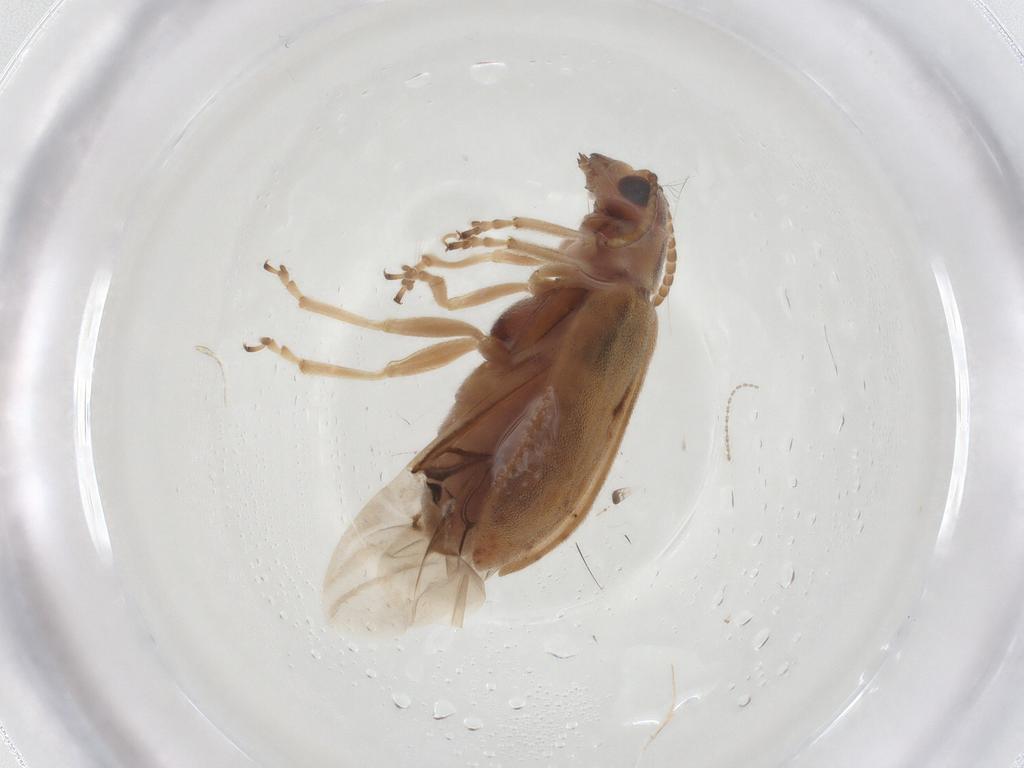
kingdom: Animalia
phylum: Arthropoda
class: Insecta
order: Coleoptera
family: Chrysomelidae
